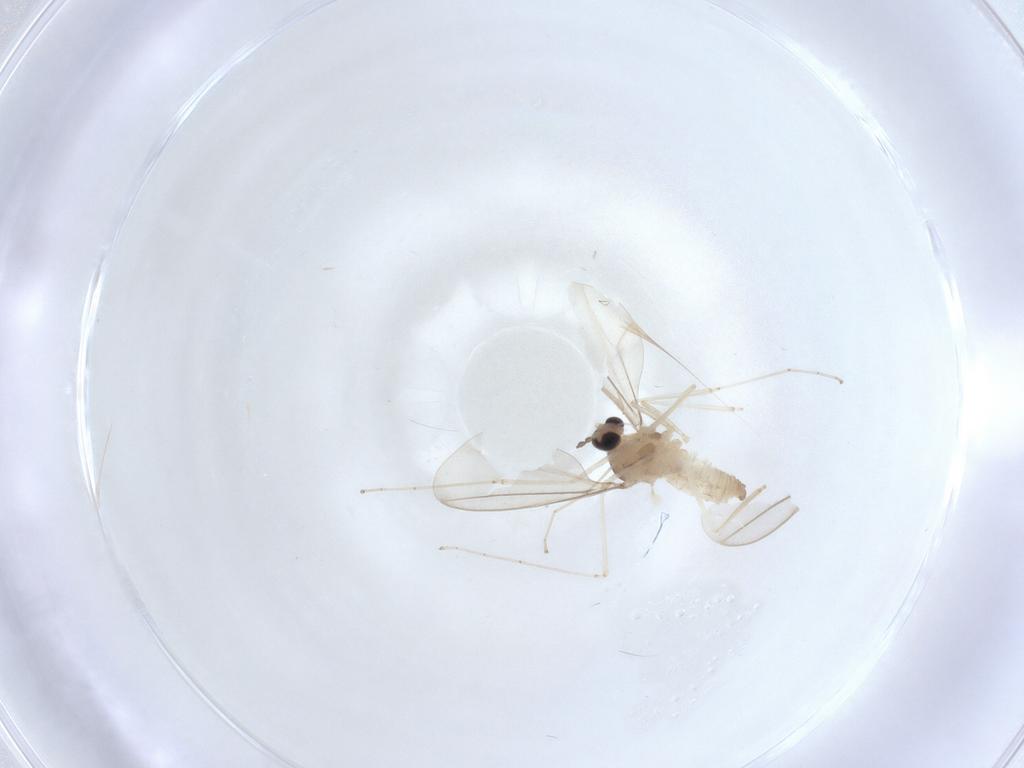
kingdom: Animalia
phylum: Arthropoda
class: Insecta
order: Diptera
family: Cecidomyiidae
